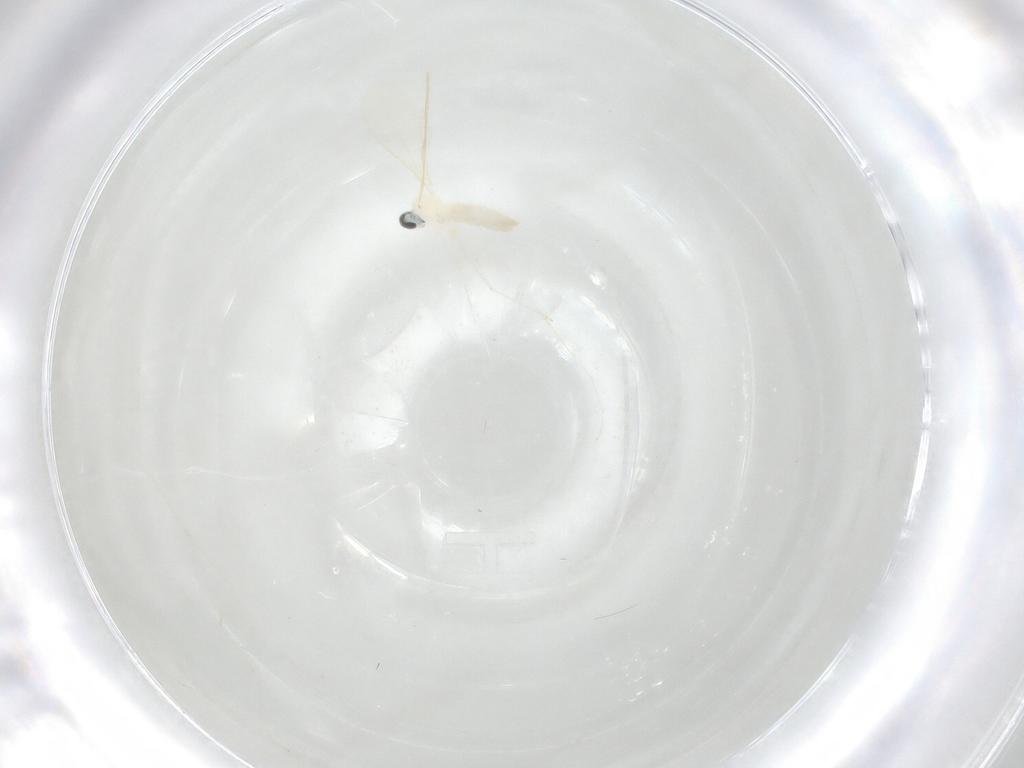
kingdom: Animalia
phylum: Arthropoda
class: Insecta
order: Diptera
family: Cecidomyiidae
